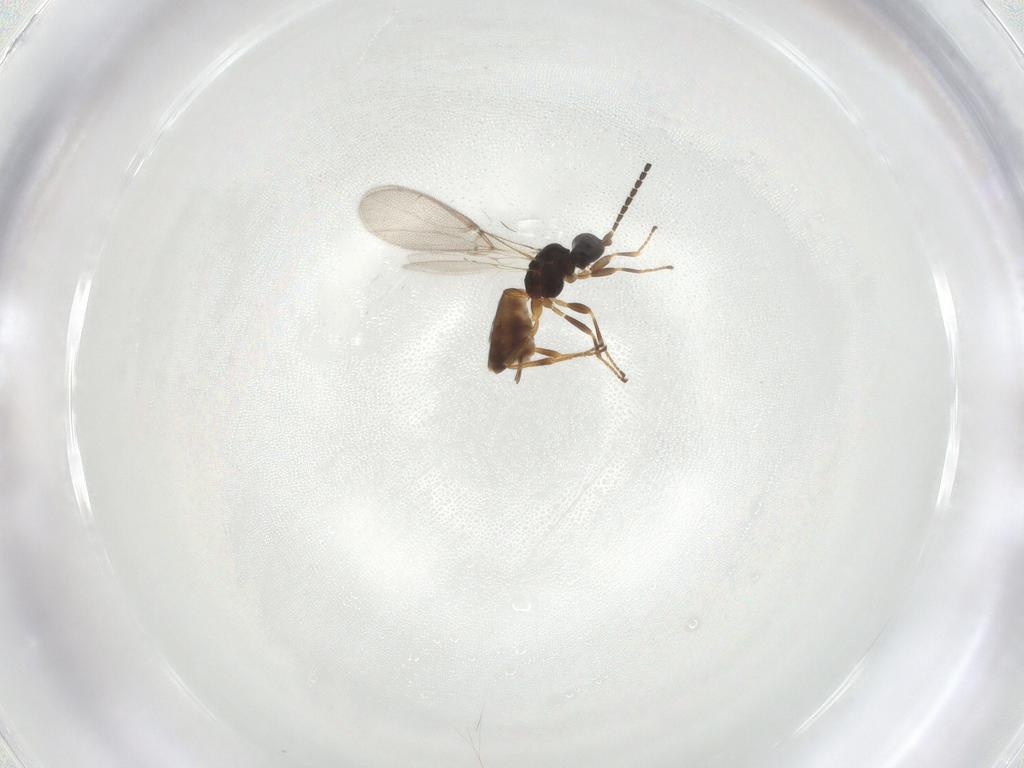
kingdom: Animalia
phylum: Arthropoda
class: Insecta
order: Hymenoptera
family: Braconidae
